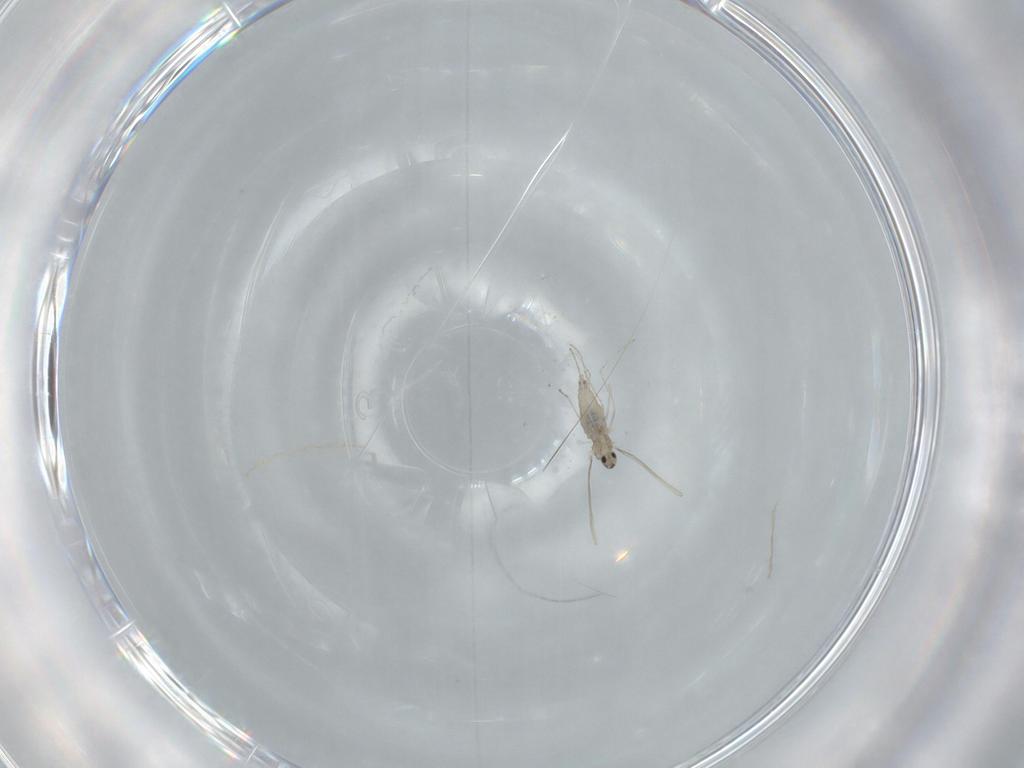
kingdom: Animalia
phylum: Arthropoda
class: Insecta
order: Diptera
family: Cecidomyiidae
